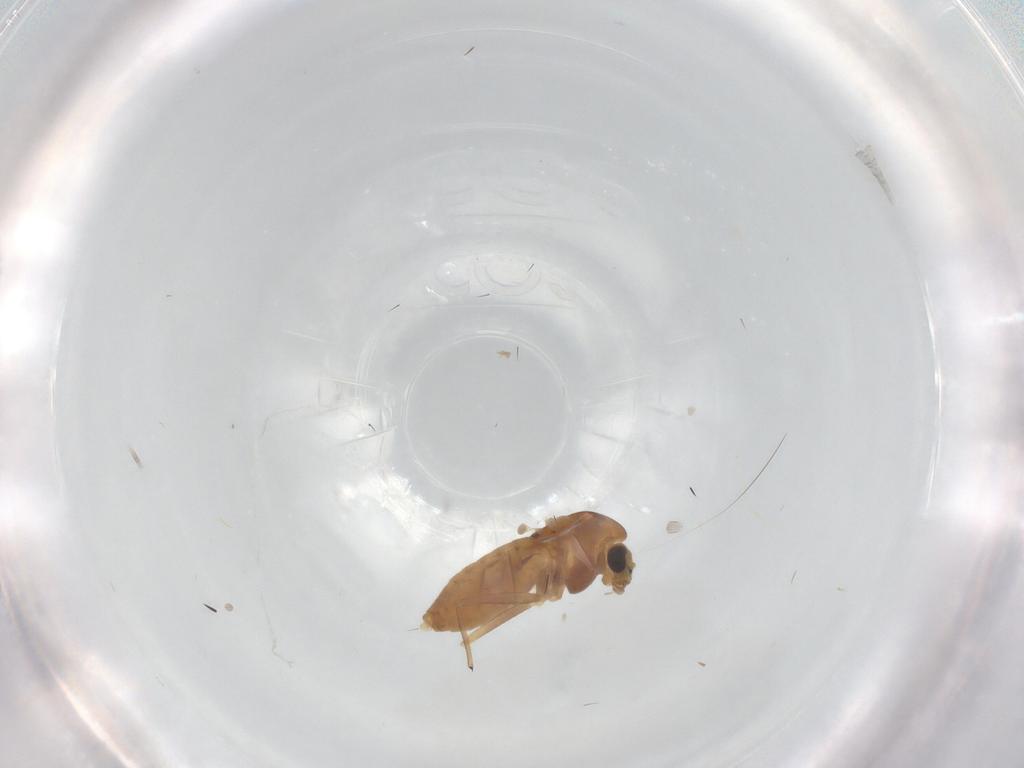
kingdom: Animalia
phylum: Arthropoda
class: Insecta
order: Diptera
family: Chironomidae
